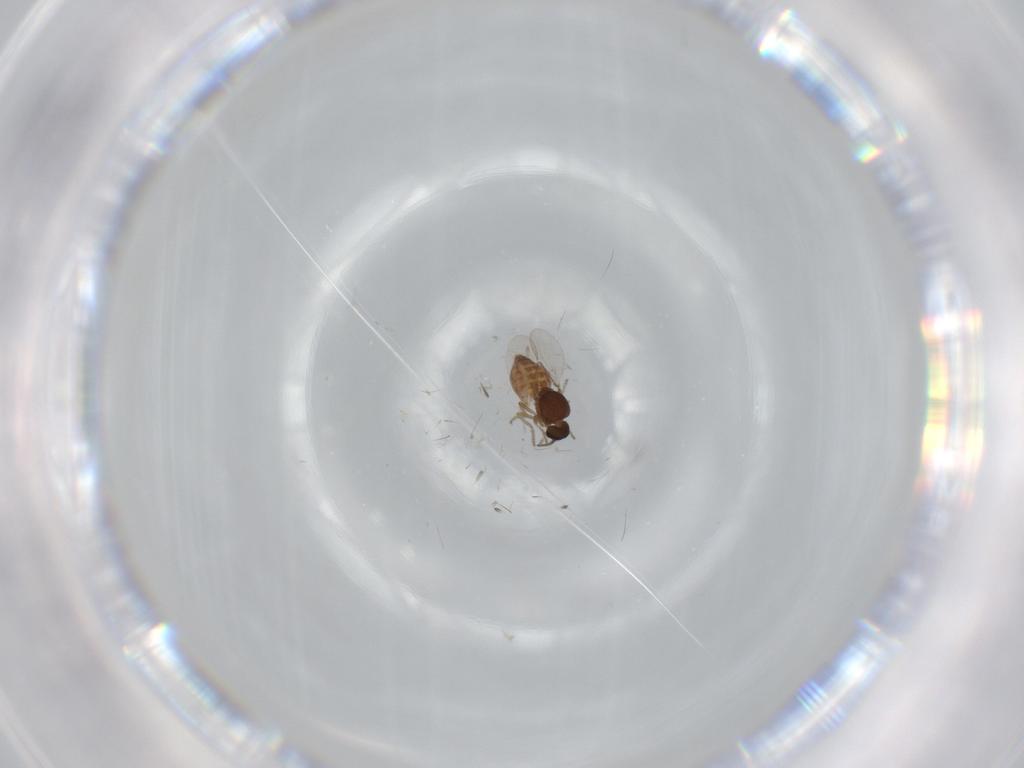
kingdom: Animalia
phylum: Arthropoda
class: Insecta
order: Diptera
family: Ceratopogonidae
